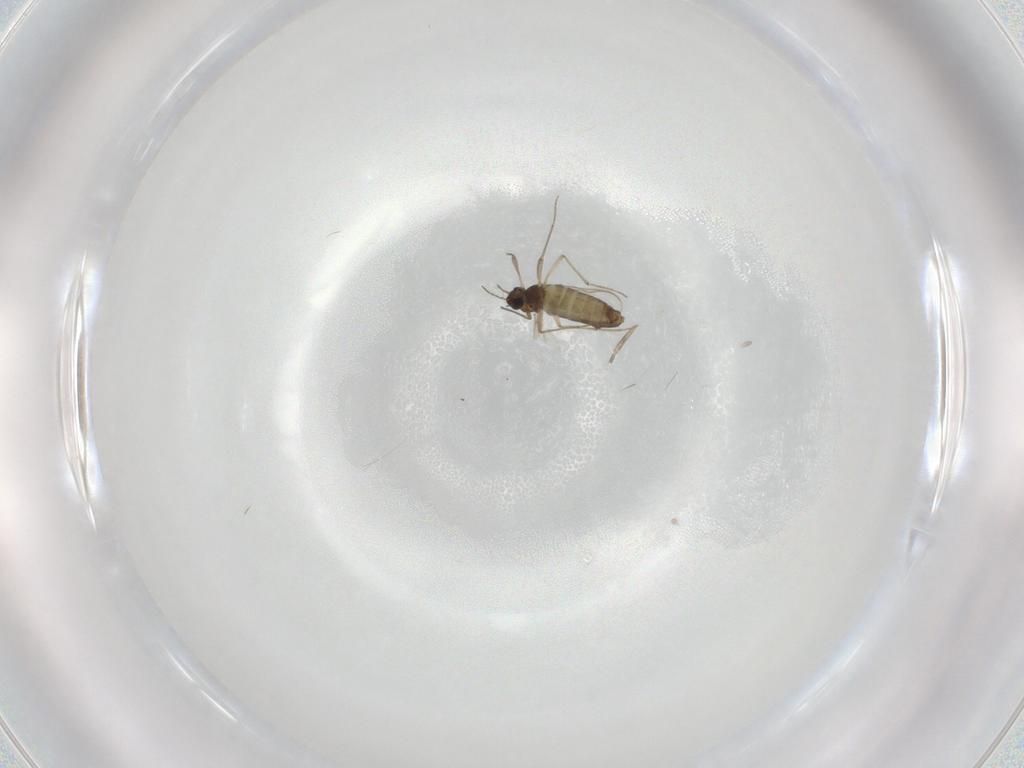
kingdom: Animalia
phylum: Arthropoda
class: Insecta
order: Diptera
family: Chironomidae
